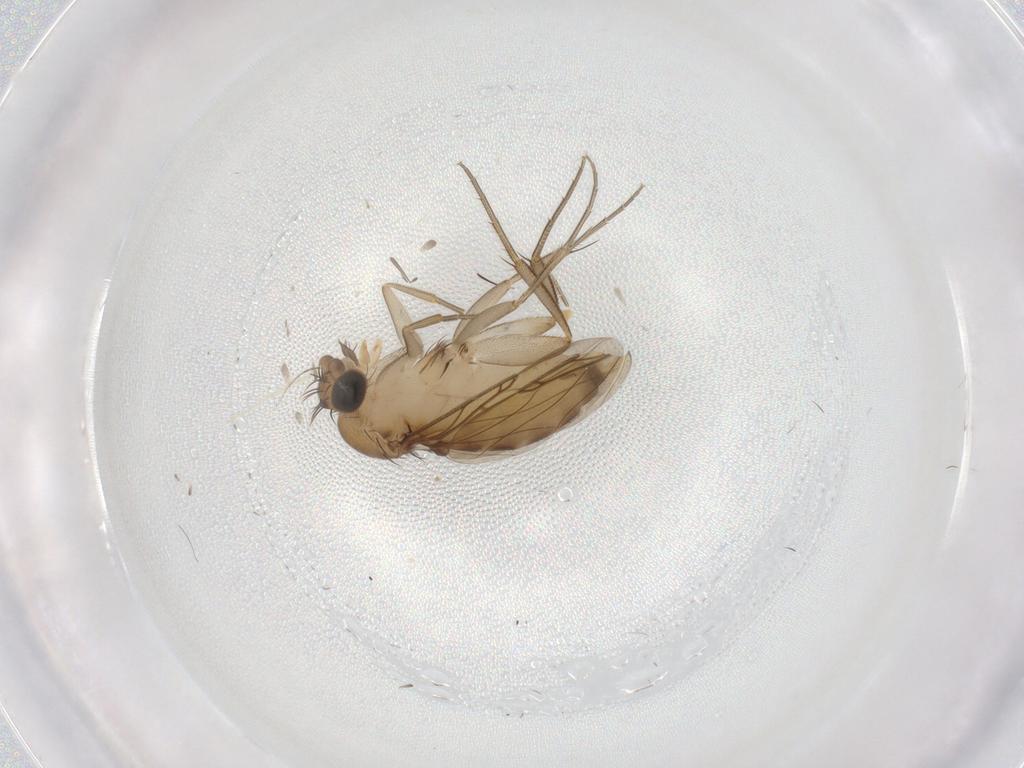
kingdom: Animalia
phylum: Arthropoda
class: Insecta
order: Diptera
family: Phoridae
